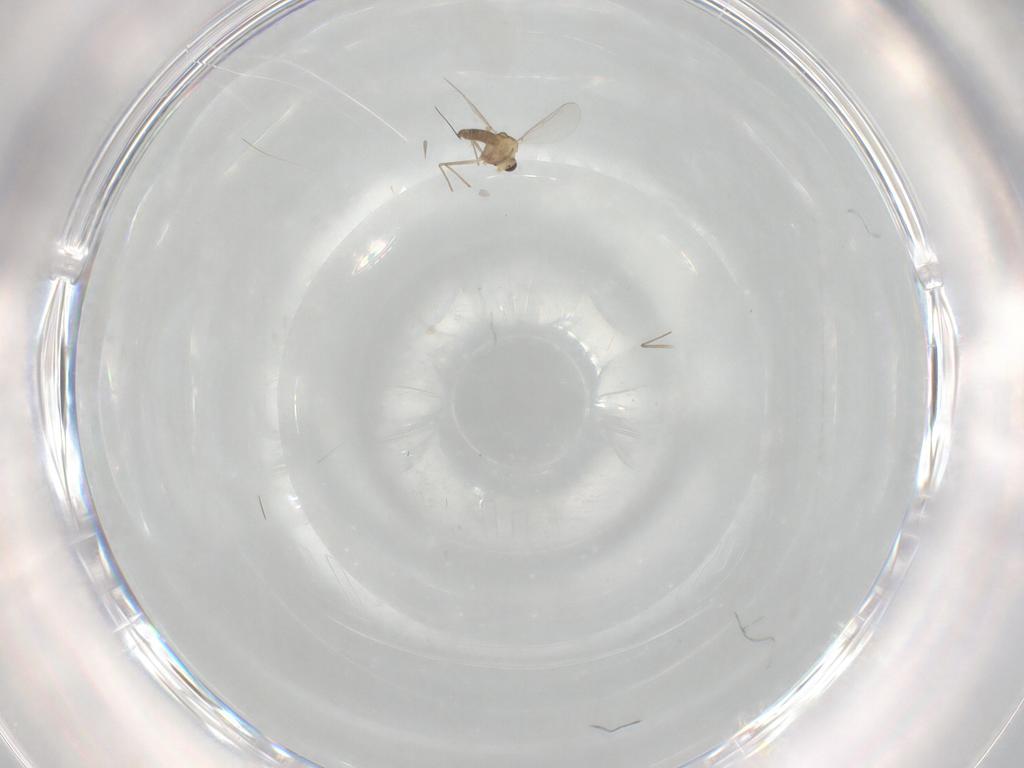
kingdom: Animalia
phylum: Arthropoda
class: Insecta
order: Diptera
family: Chironomidae
